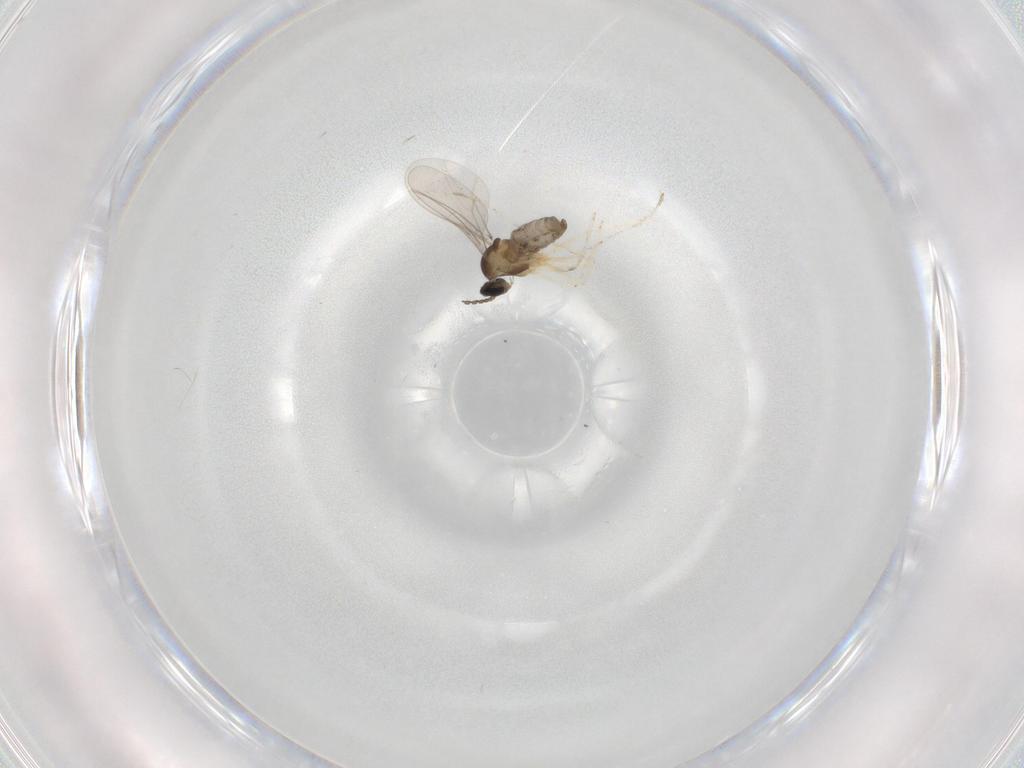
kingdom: Animalia
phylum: Arthropoda
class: Insecta
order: Diptera
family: Cecidomyiidae
